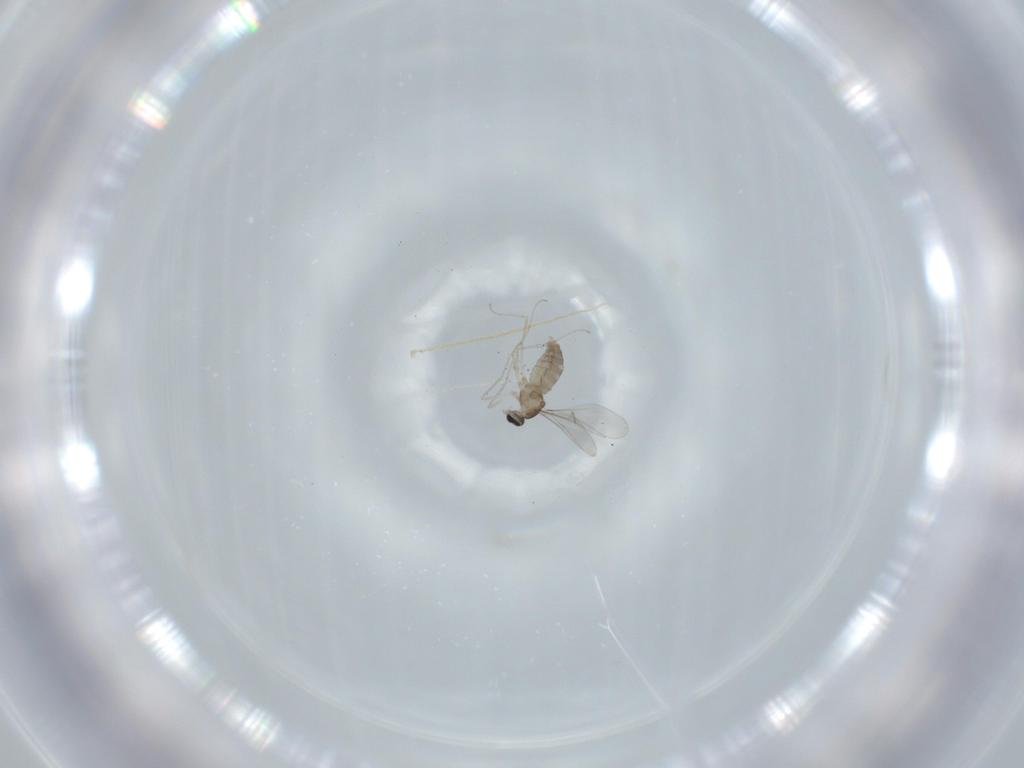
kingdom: Animalia
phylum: Arthropoda
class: Insecta
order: Diptera
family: Cecidomyiidae
